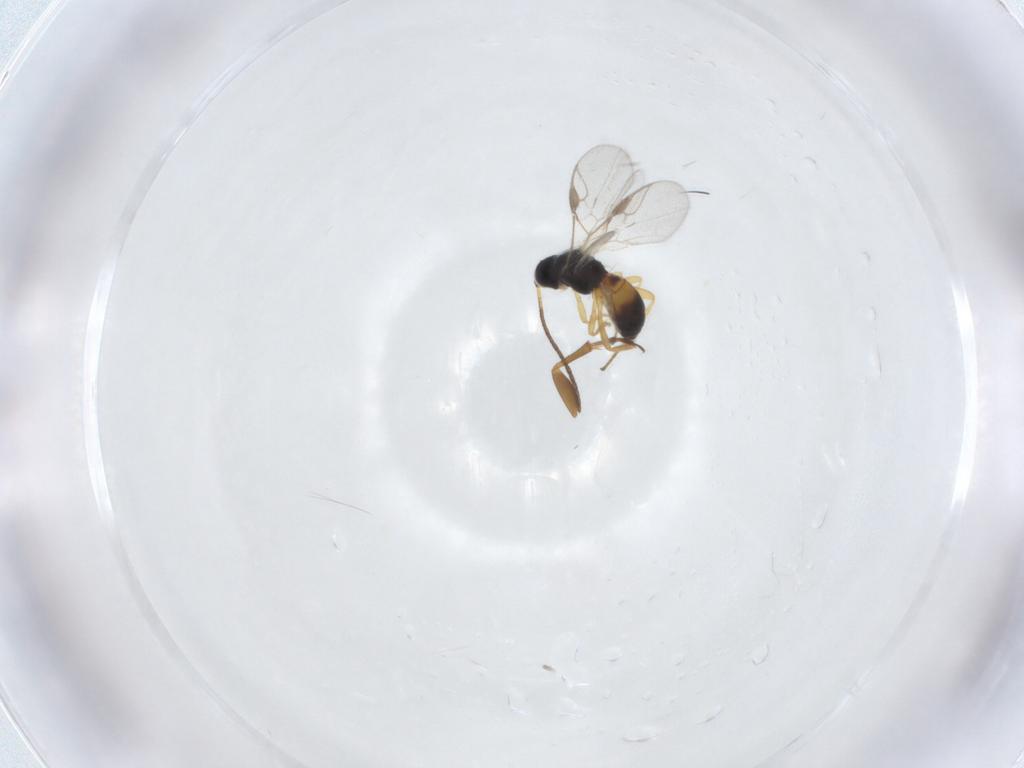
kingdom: Animalia
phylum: Arthropoda
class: Insecta
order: Hymenoptera
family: Braconidae
